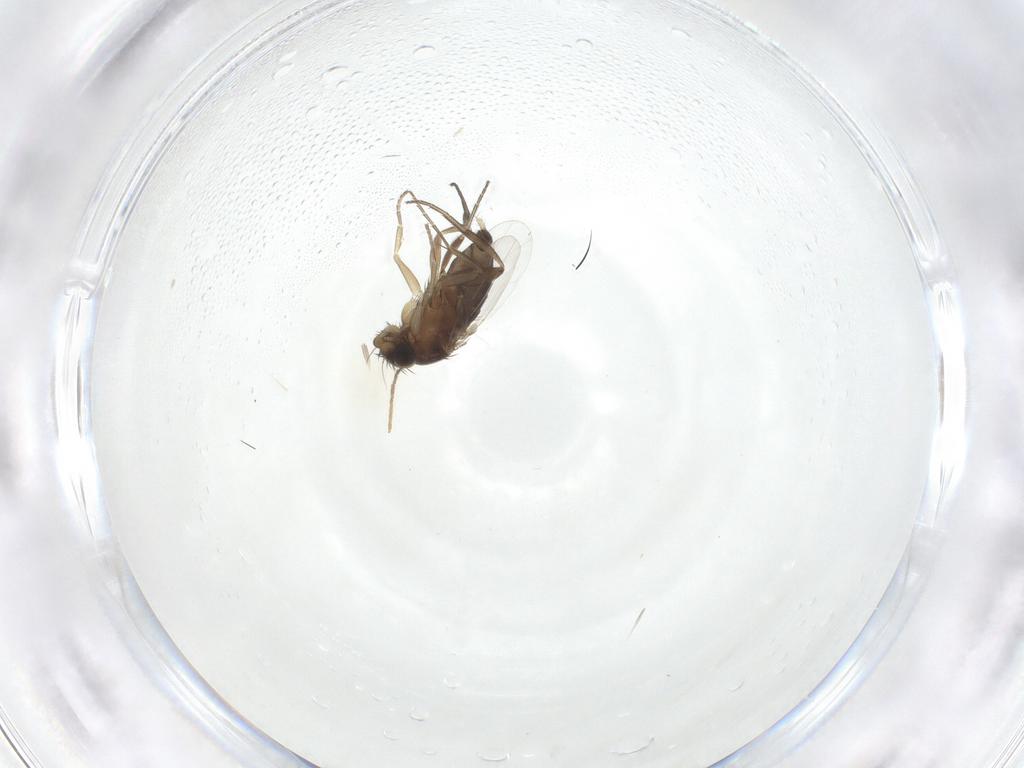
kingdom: Animalia
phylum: Arthropoda
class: Insecta
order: Diptera
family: Phoridae
